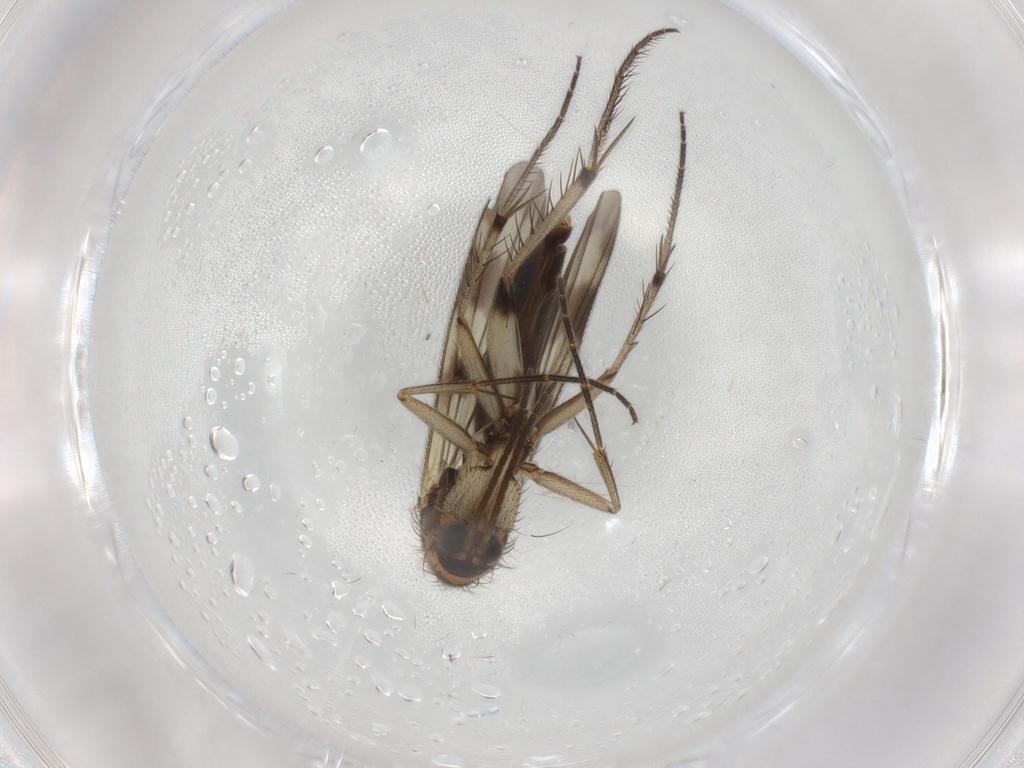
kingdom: Animalia
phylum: Arthropoda
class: Insecta
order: Diptera
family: Mycetophilidae
